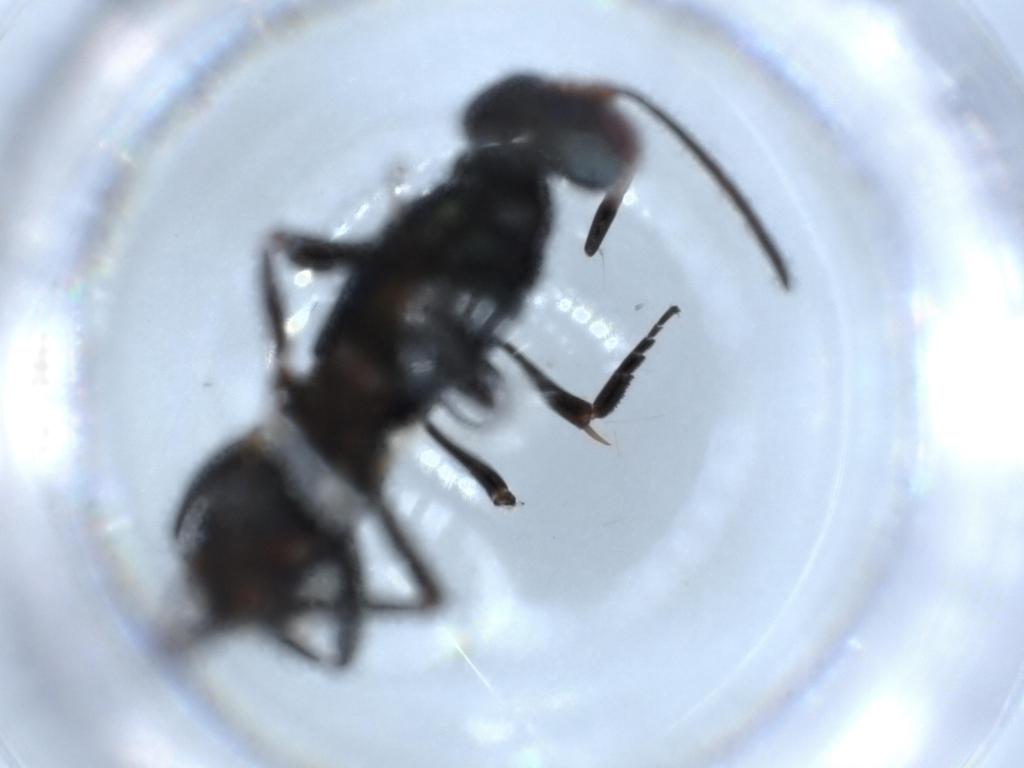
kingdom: Animalia
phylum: Arthropoda
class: Insecta
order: Hymenoptera
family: Eupelmidae
